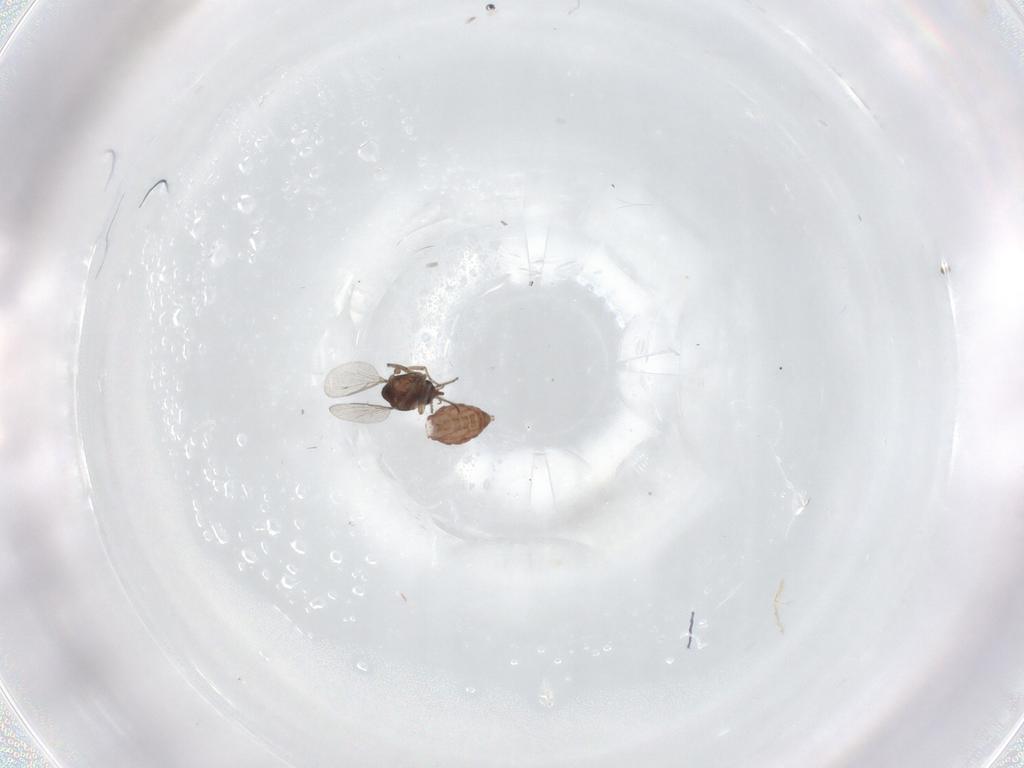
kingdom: Animalia
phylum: Arthropoda
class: Insecta
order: Diptera
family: Ceratopogonidae
